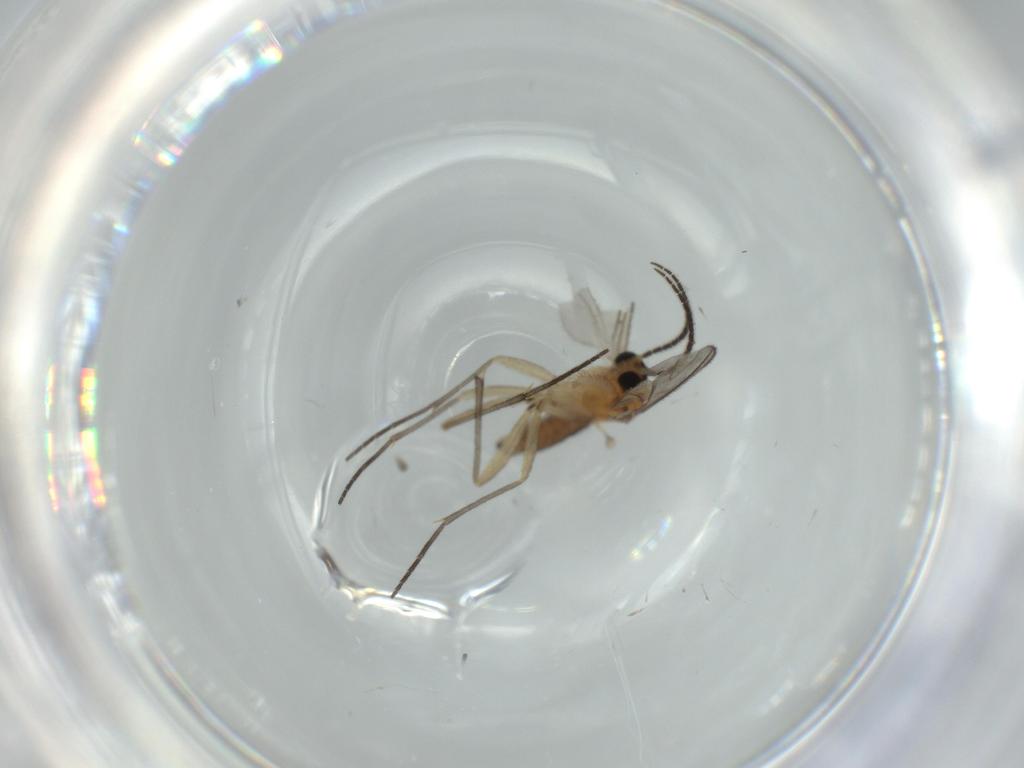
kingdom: Animalia
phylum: Arthropoda
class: Insecta
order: Diptera
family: Sciaridae
